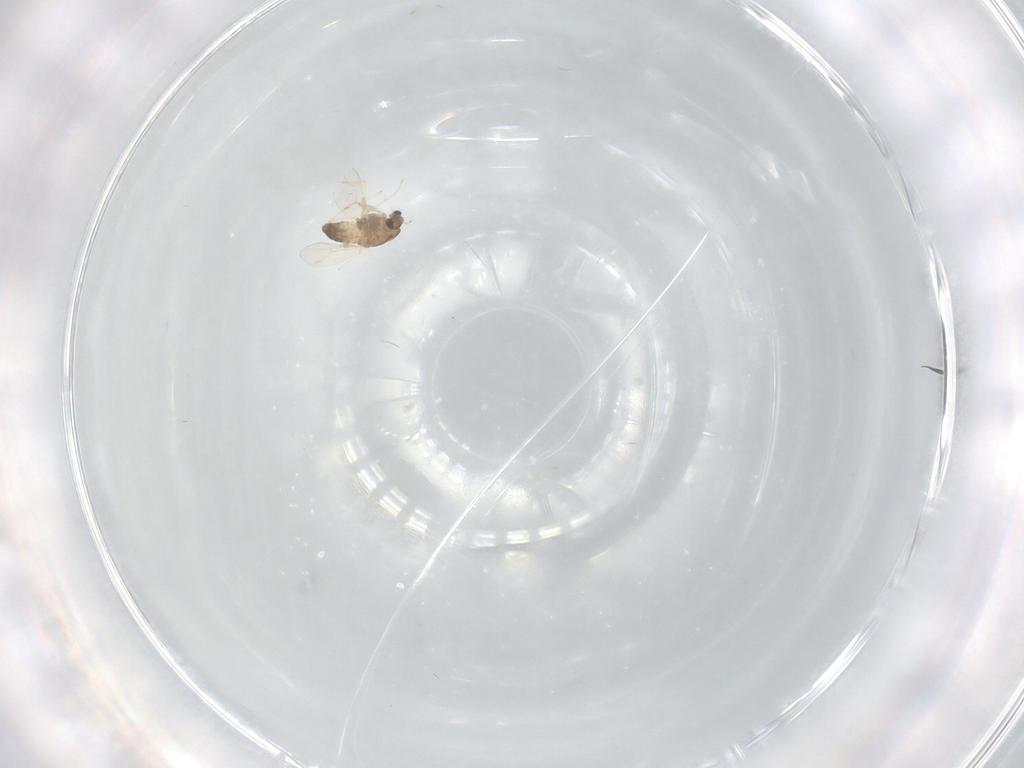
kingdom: Animalia
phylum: Arthropoda
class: Insecta
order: Diptera
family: Chironomidae
